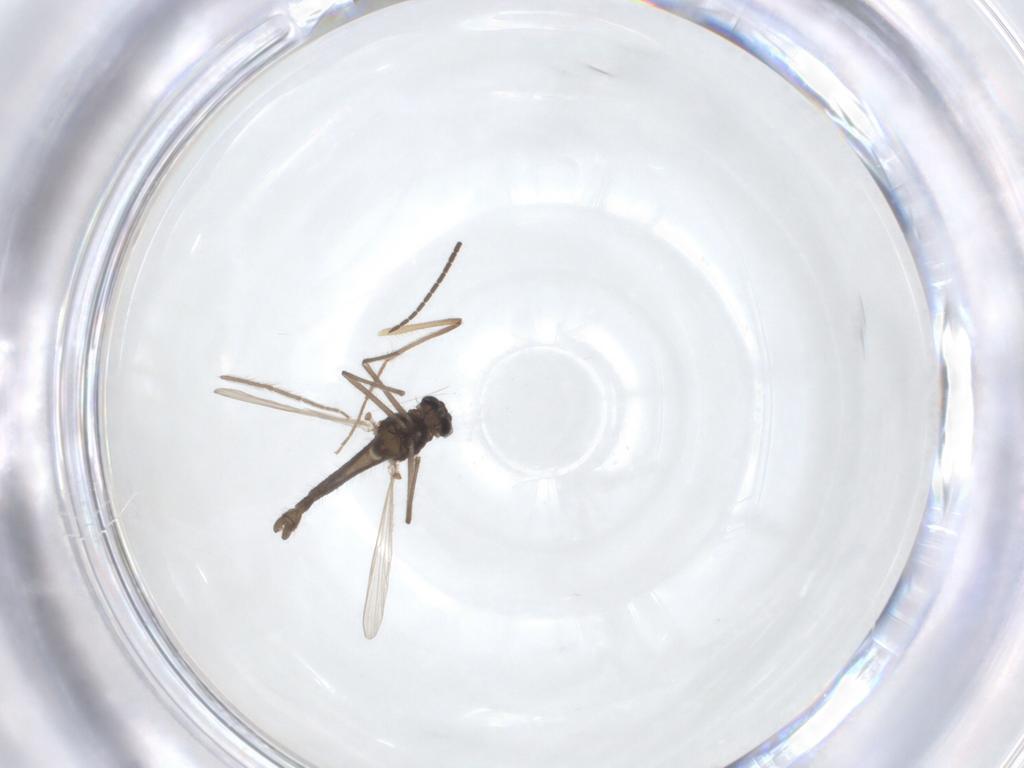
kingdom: Animalia
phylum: Arthropoda
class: Insecta
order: Diptera
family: Chironomidae
